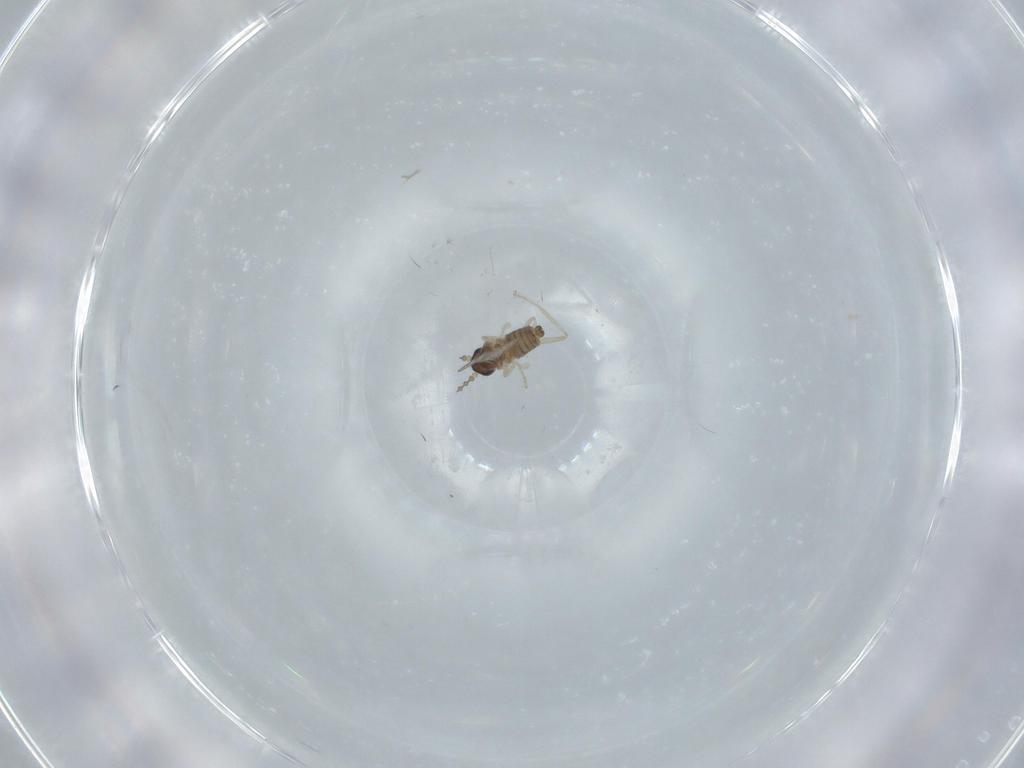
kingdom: Animalia
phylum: Arthropoda
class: Insecta
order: Diptera
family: Cecidomyiidae
